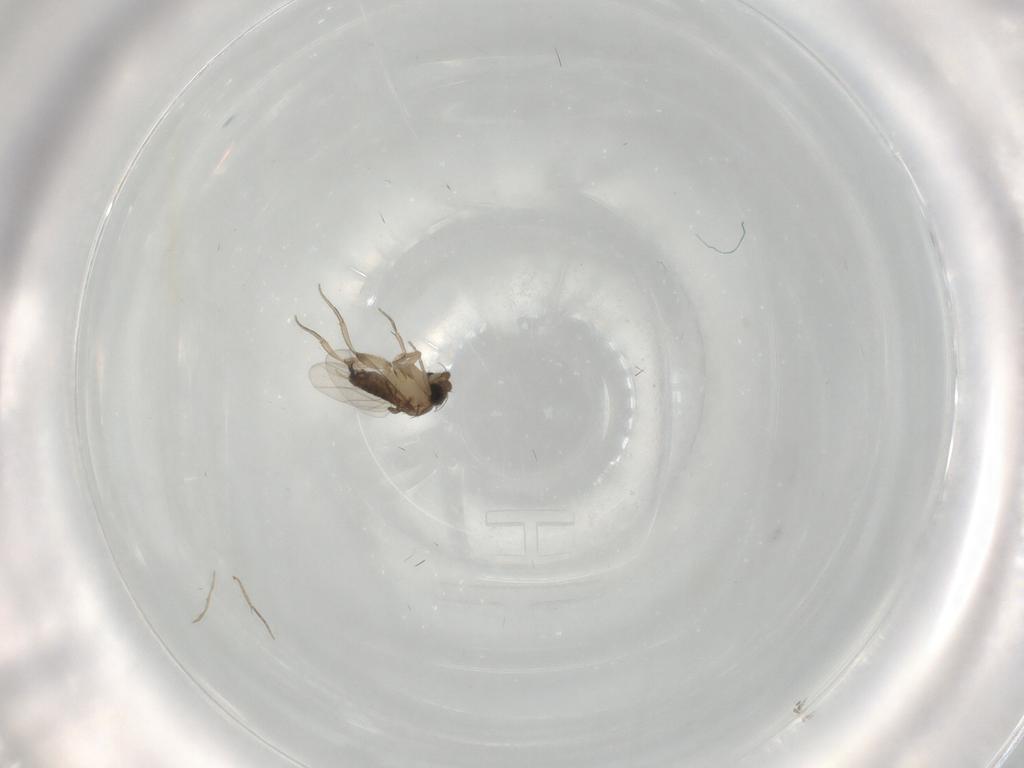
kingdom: Animalia
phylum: Arthropoda
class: Insecta
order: Diptera
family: Phoridae
